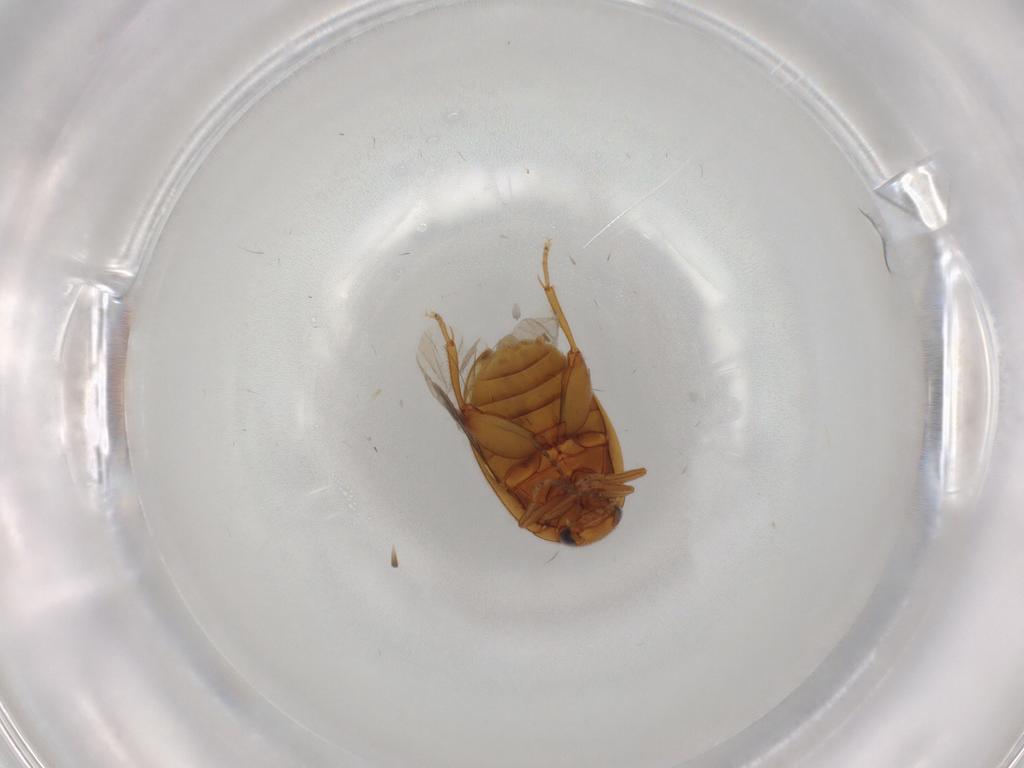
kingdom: Animalia
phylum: Arthropoda
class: Insecta
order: Coleoptera
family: Scirtidae
